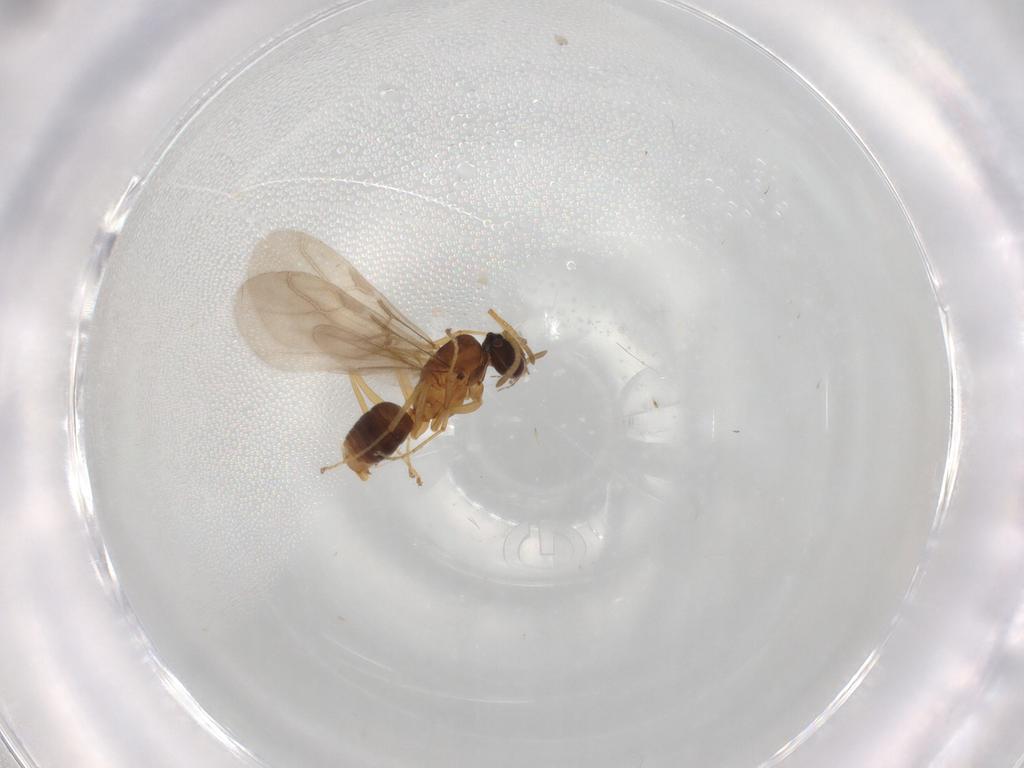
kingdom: Animalia
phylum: Arthropoda
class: Insecta
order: Hymenoptera
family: Formicidae
